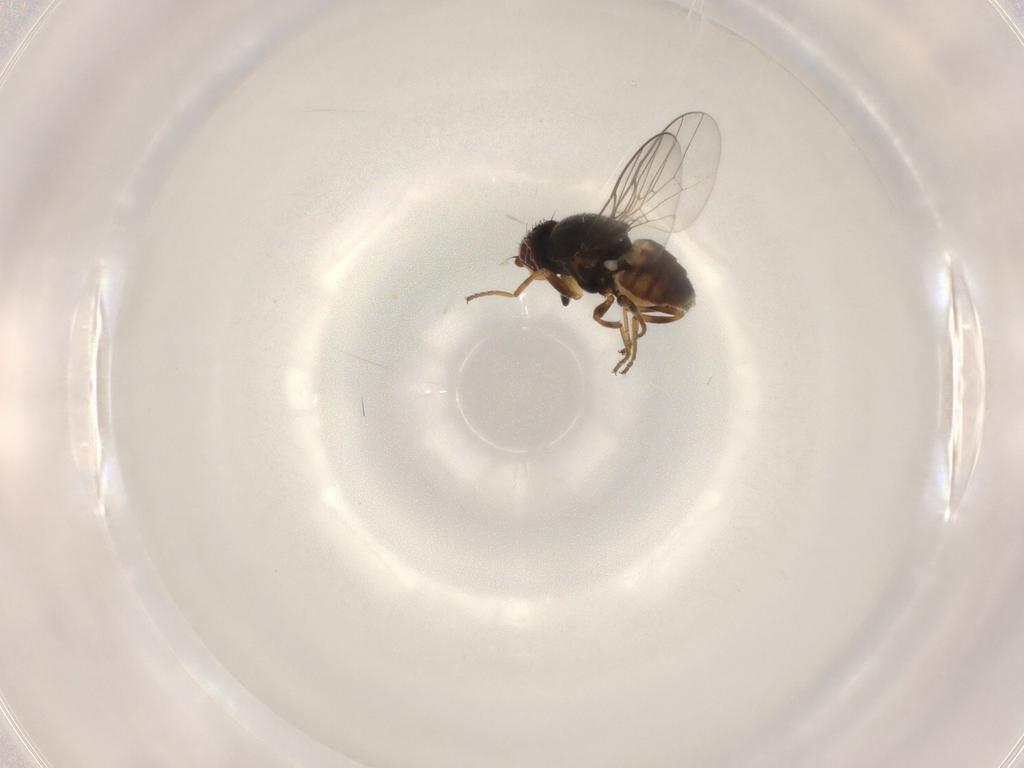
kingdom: Animalia
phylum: Arthropoda
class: Insecta
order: Diptera
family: Chloropidae
